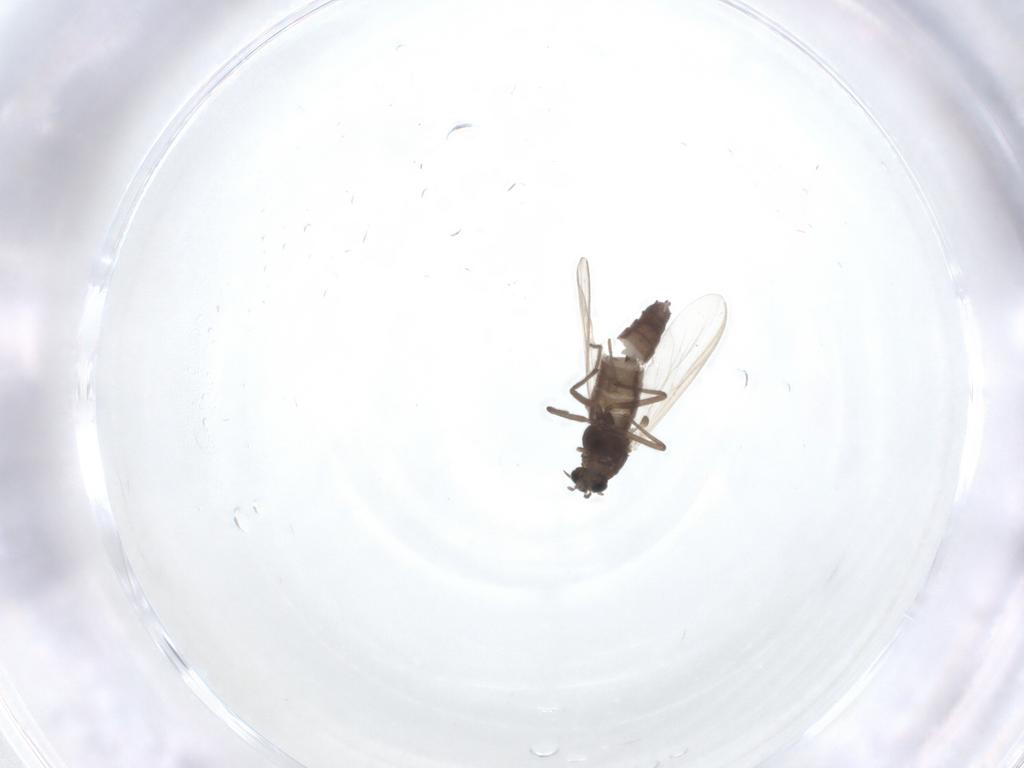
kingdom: Animalia
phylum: Arthropoda
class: Insecta
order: Diptera
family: Chironomidae
